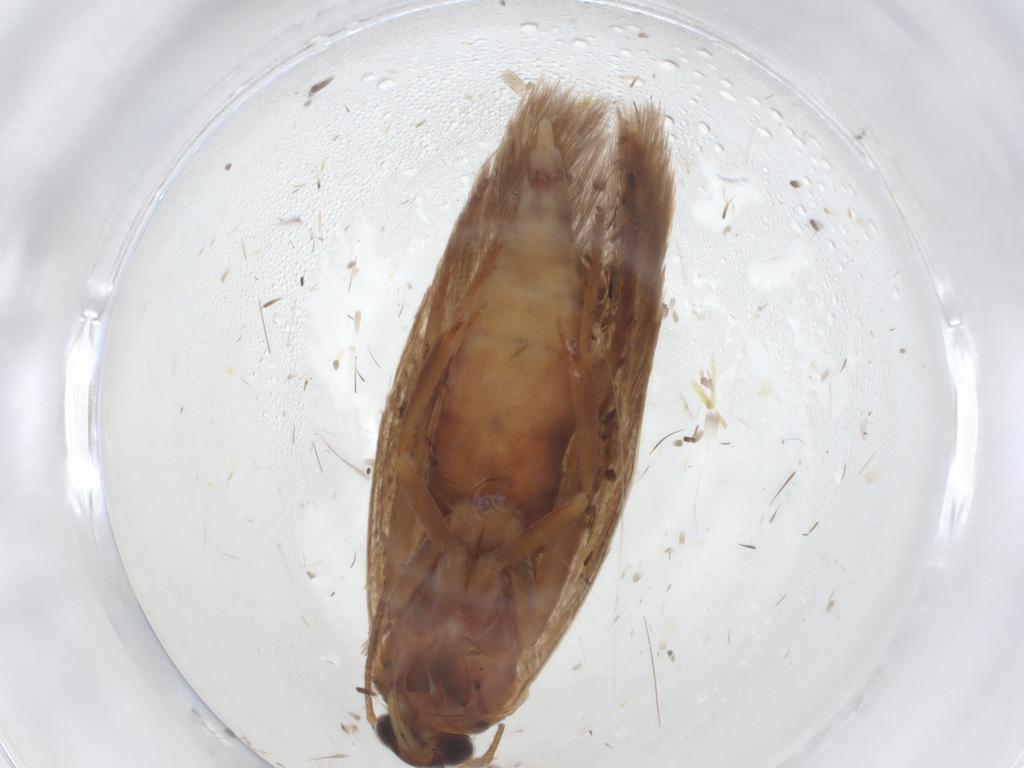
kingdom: Animalia
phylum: Arthropoda
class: Insecta
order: Lepidoptera
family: Scythrididae
